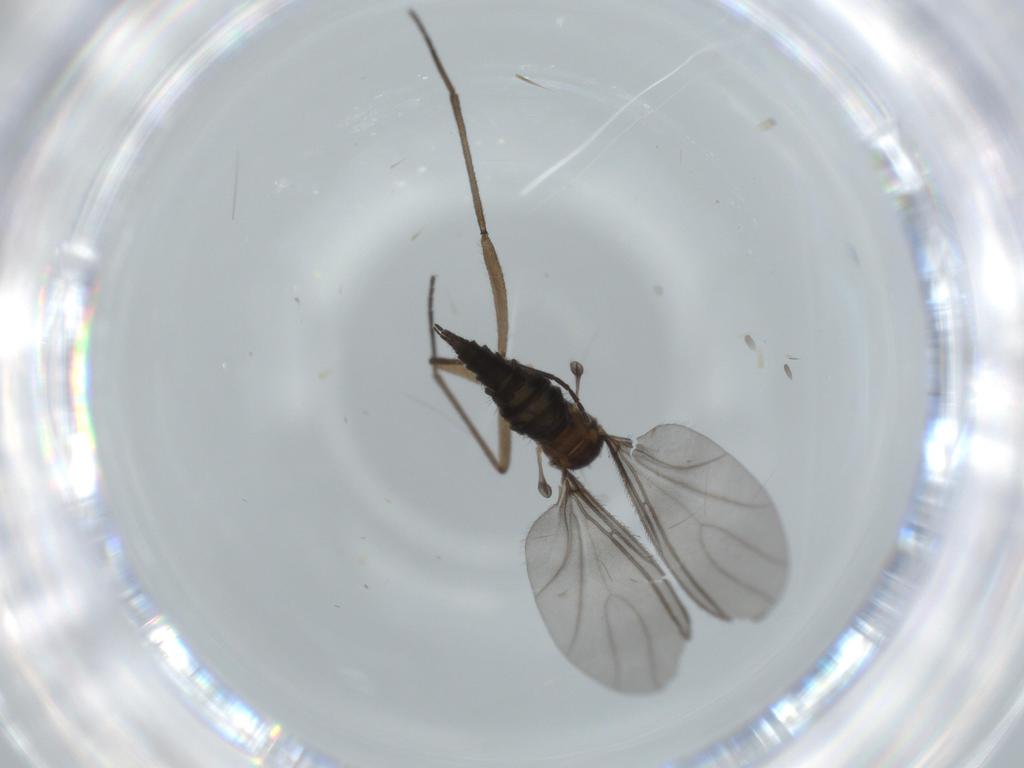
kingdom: Animalia
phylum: Arthropoda
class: Insecta
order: Diptera
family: Sciaridae
